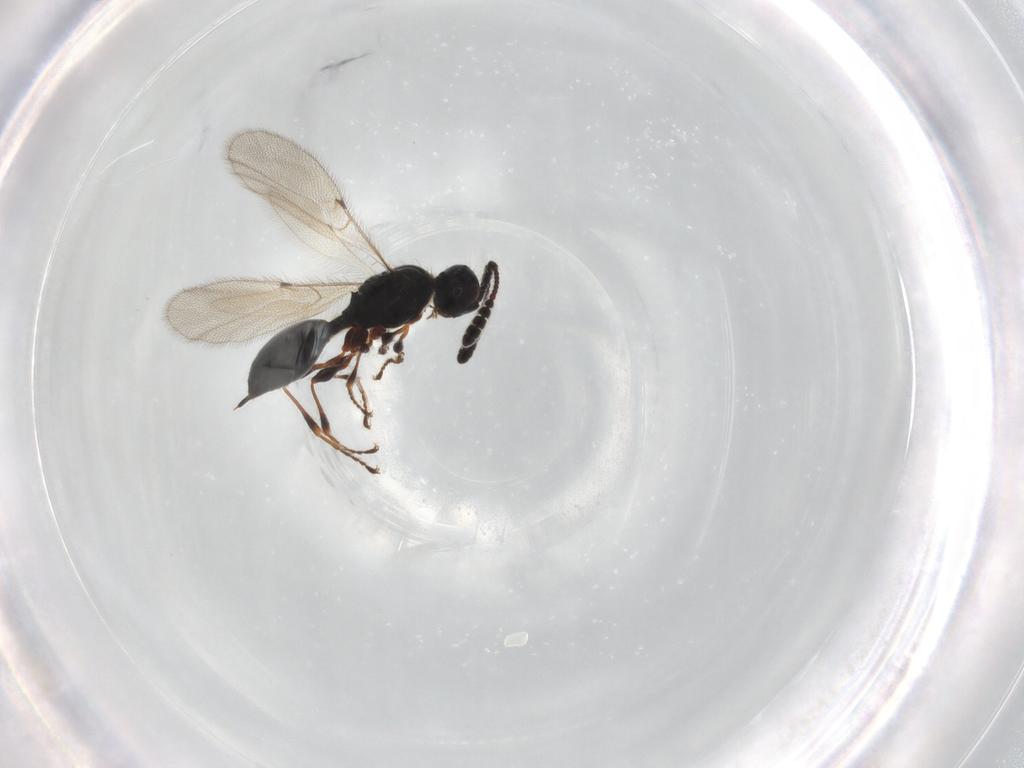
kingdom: Animalia
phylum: Arthropoda
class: Insecta
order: Hymenoptera
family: Diapriidae
